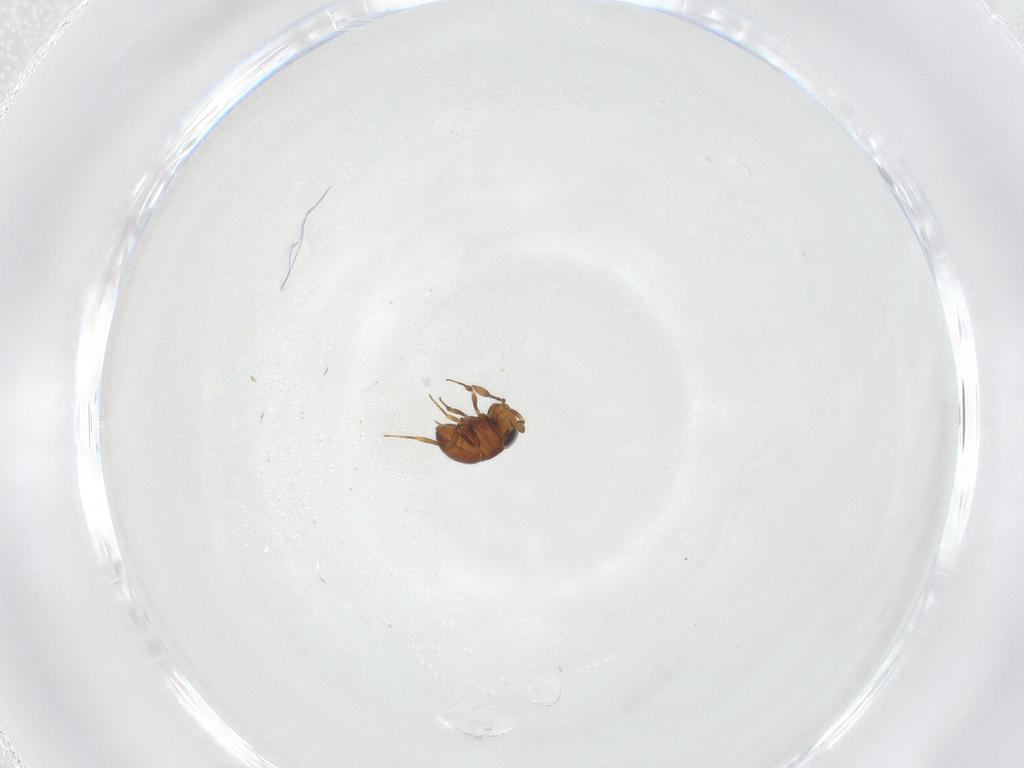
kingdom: Animalia
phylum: Arthropoda
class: Insecta
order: Hymenoptera
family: Scelionidae
